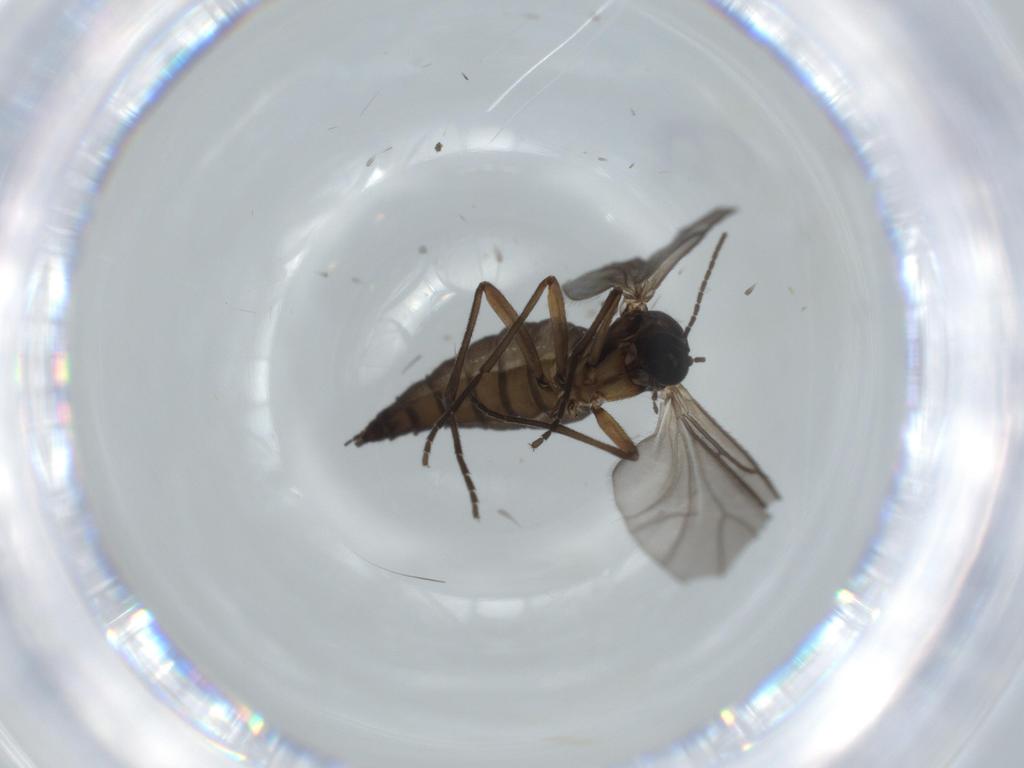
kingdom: Animalia
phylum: Arthropoda
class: Insecta
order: Diptera
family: Sciaridae
